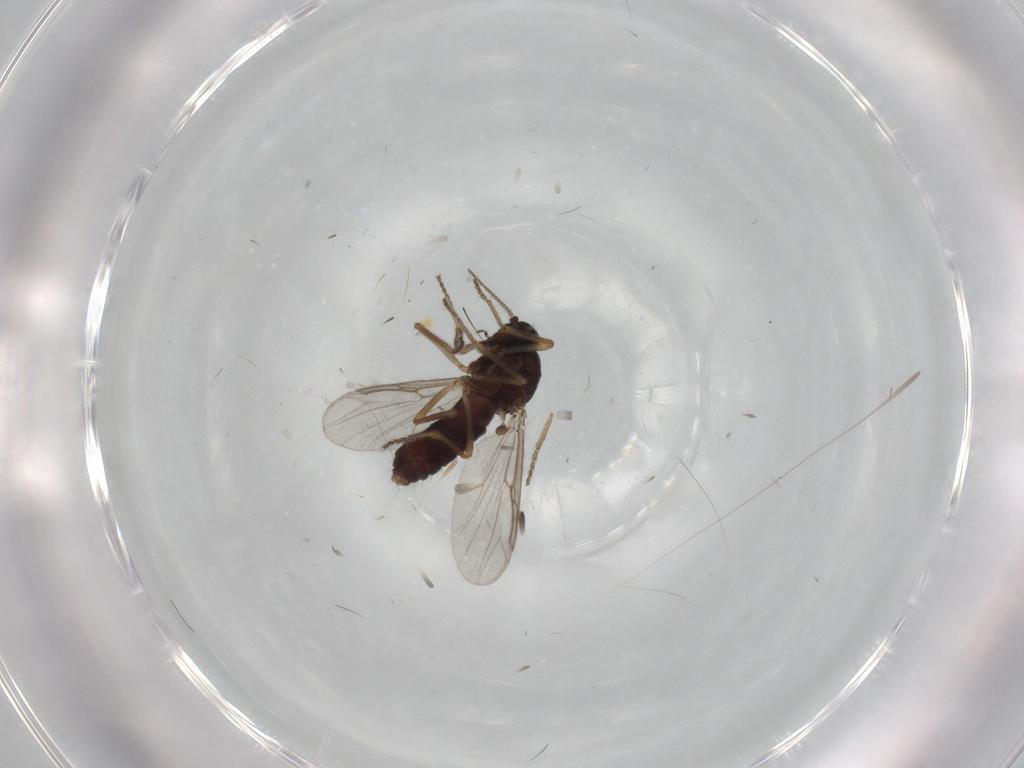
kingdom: Animalia
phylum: Arthropoda
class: Insecta
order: Diptera
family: Ceratopogonidae
